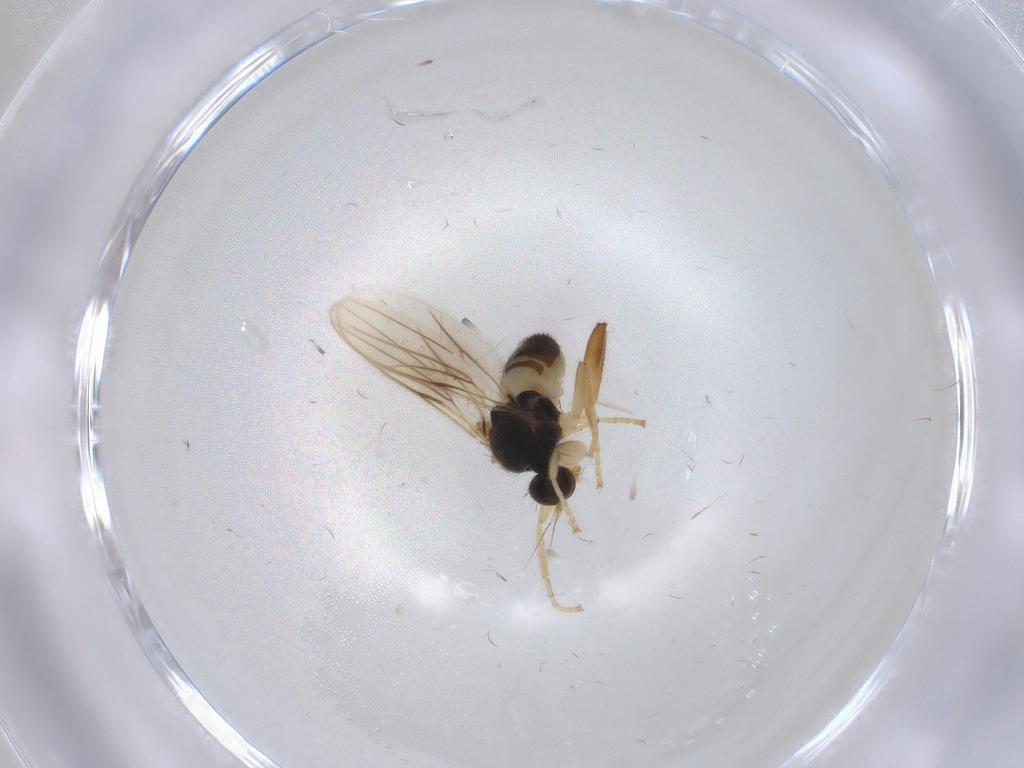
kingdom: Animalia
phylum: Arthropoda
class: Insecta
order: Diptera
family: Hybotidae
